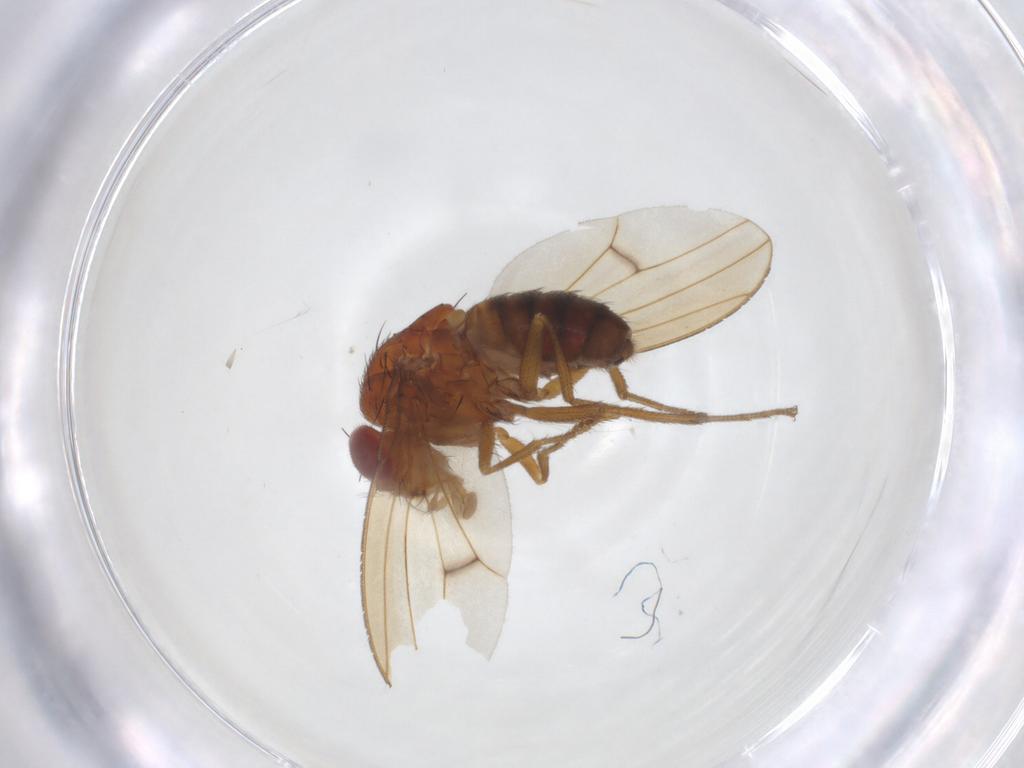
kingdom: Animalia
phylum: Arthropoda
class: Insecta
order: Diptera
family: Drosophilidae
